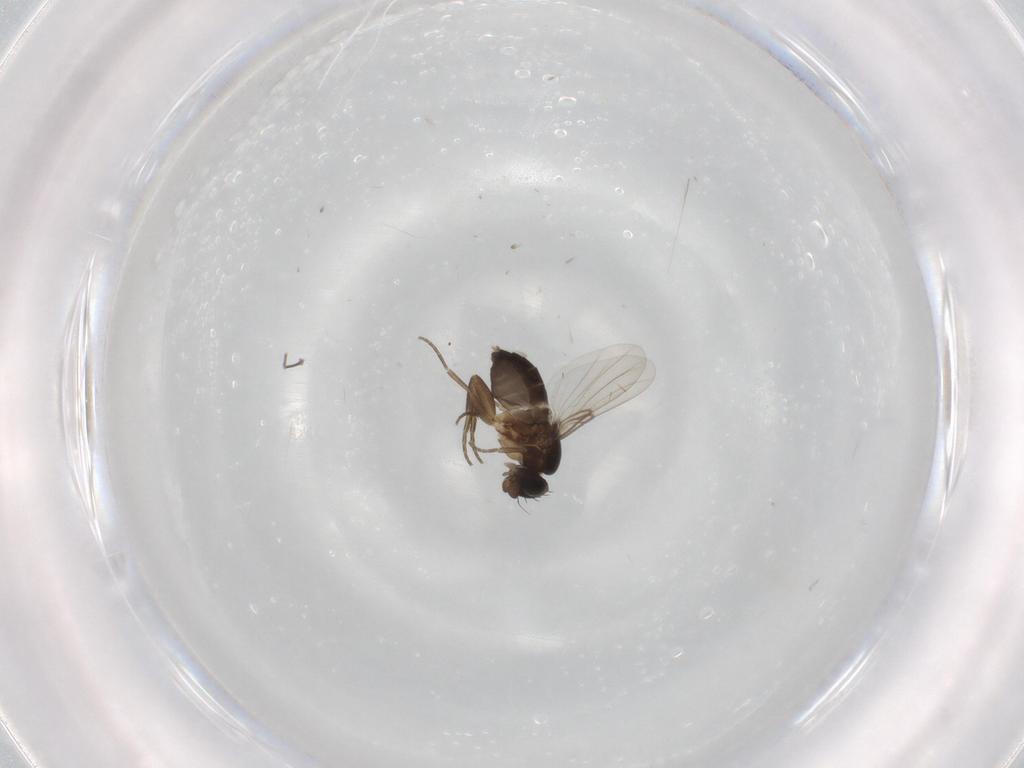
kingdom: Animalia
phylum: Arthropoda
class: Insecta
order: Diptera
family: Phoridae
